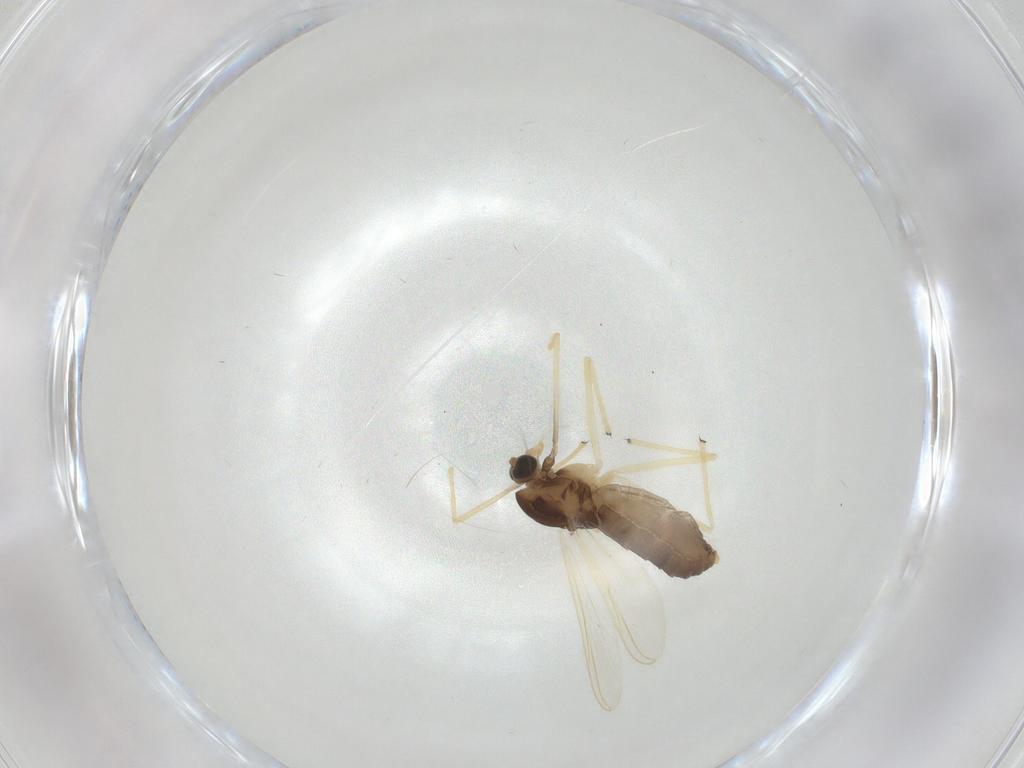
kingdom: Animalia
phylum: Arthropoda
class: Insecta
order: Diptera
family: Chironomidae
